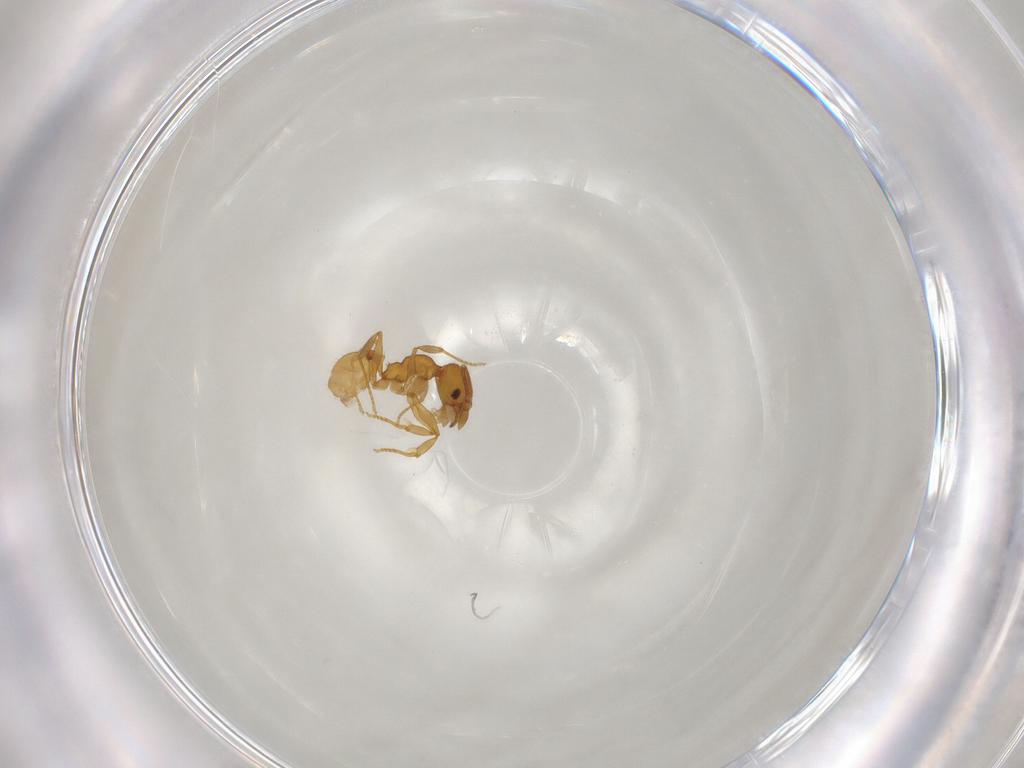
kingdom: Animalia
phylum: Arthropoda
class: Insecta
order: Hymenoptera
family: Formicidae
